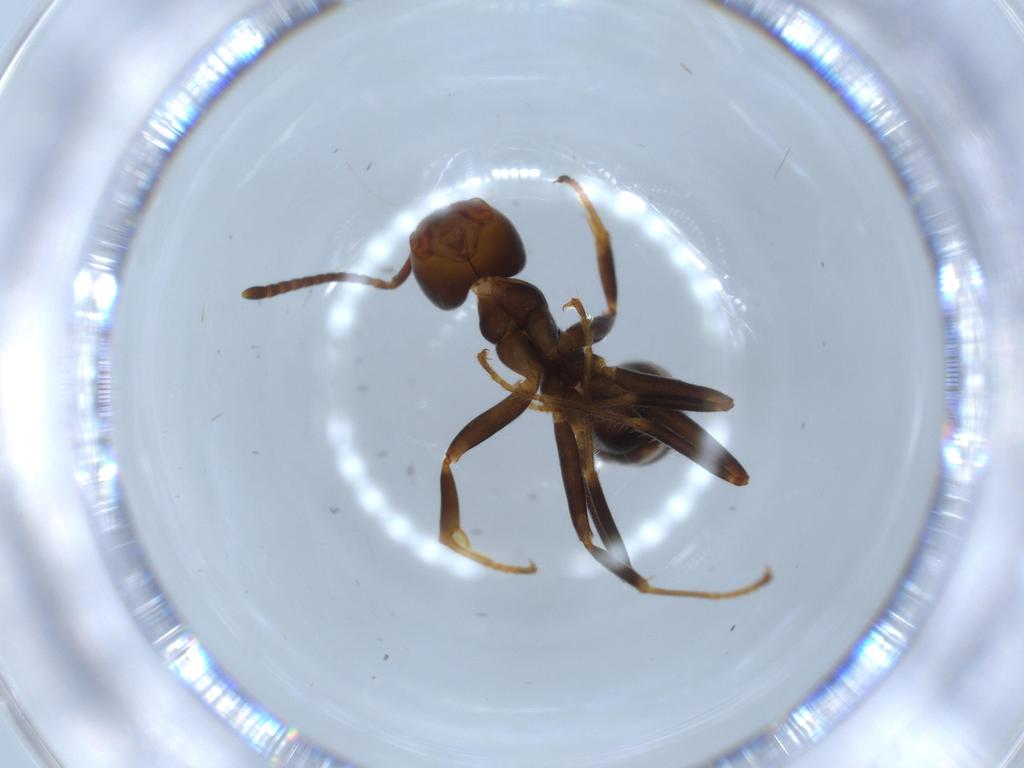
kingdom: Animalia
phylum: Arthropoda
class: Insecta
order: Hymenoptera
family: Formicidae
